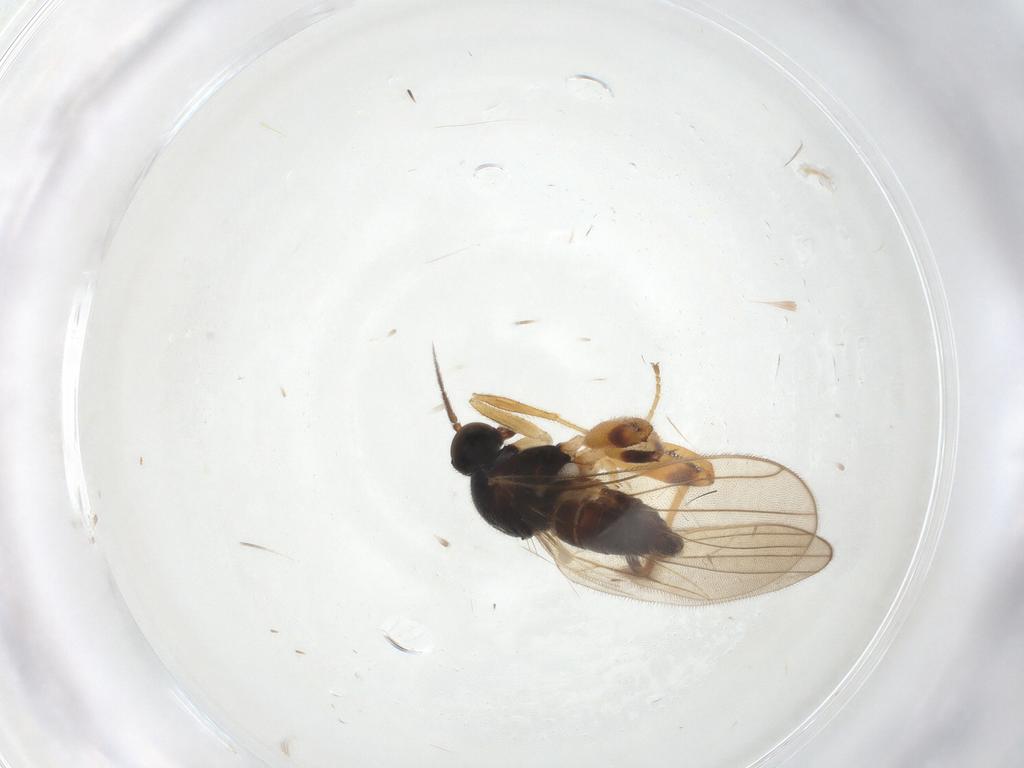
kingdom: Animalia
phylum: Arthropoda
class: Insecta
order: Diptera
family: Hybotidae
